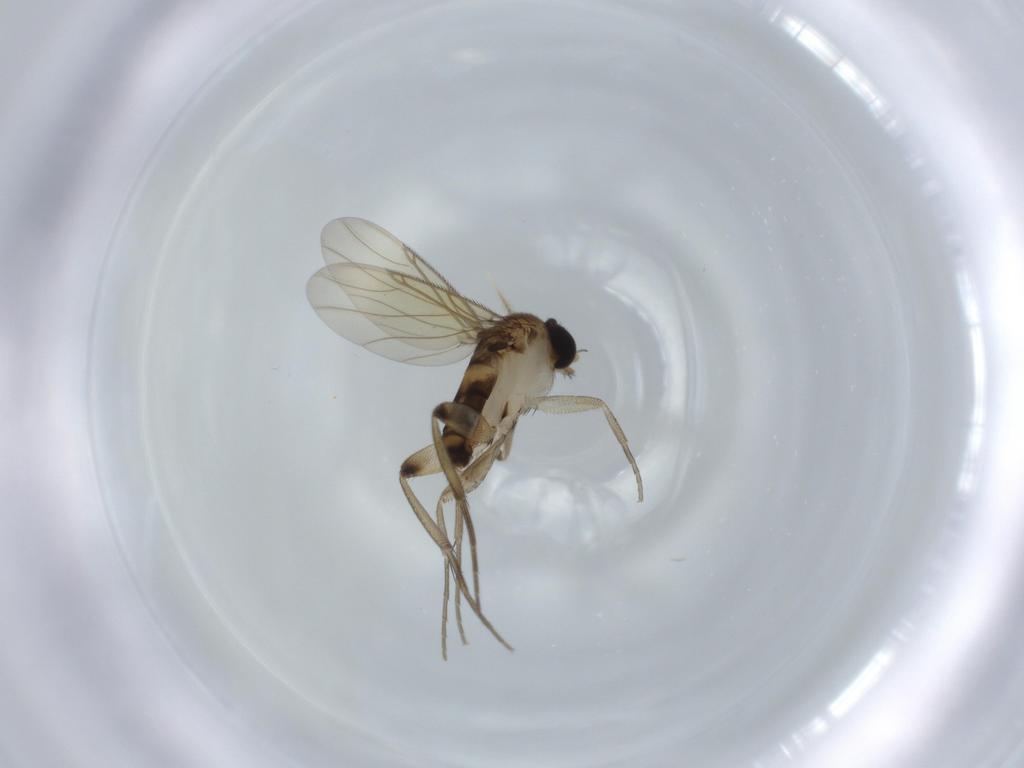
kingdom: Animalia
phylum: Arthropoda
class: Insecta
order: Diptera
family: Phoridae
